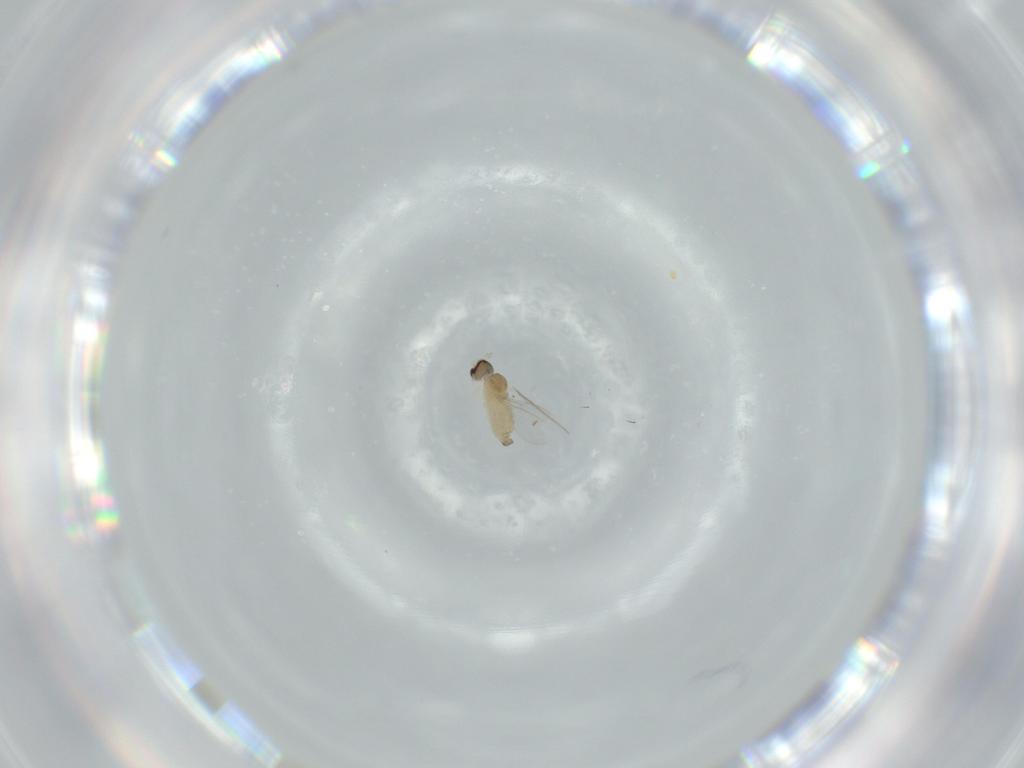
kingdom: Animalia
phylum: Arthropoda
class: Insecta
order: Diptera
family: Cecidomyiidae
